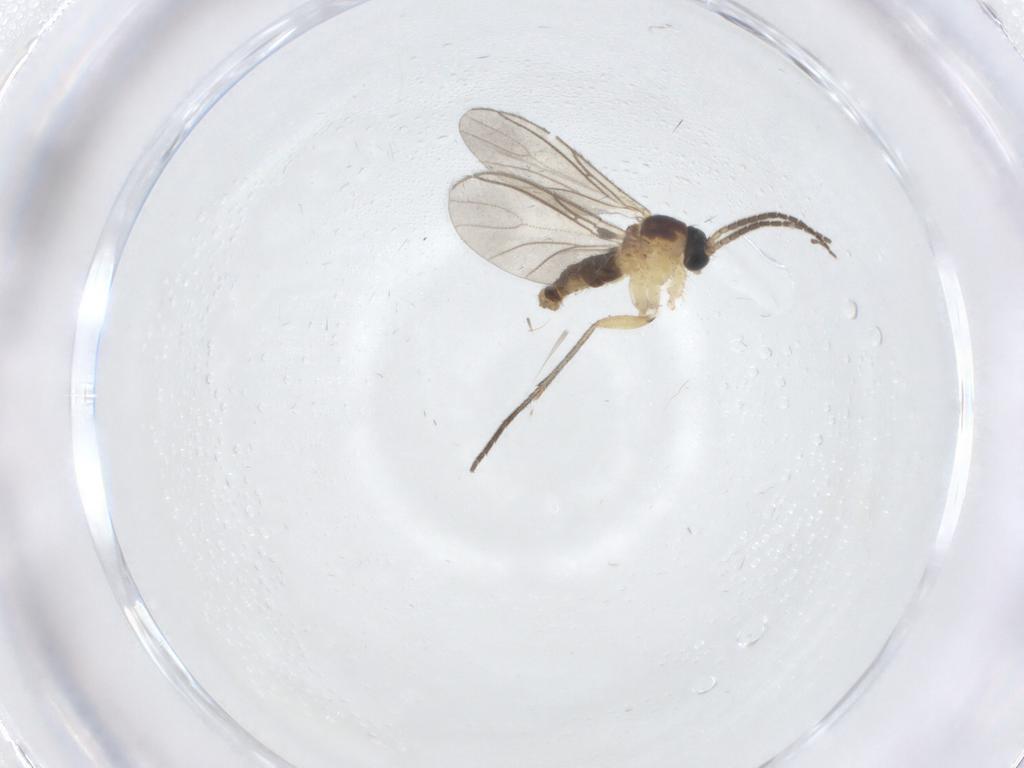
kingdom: Animalia
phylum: Arthropoda
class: Insecta
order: Diptera
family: Sciaridae
